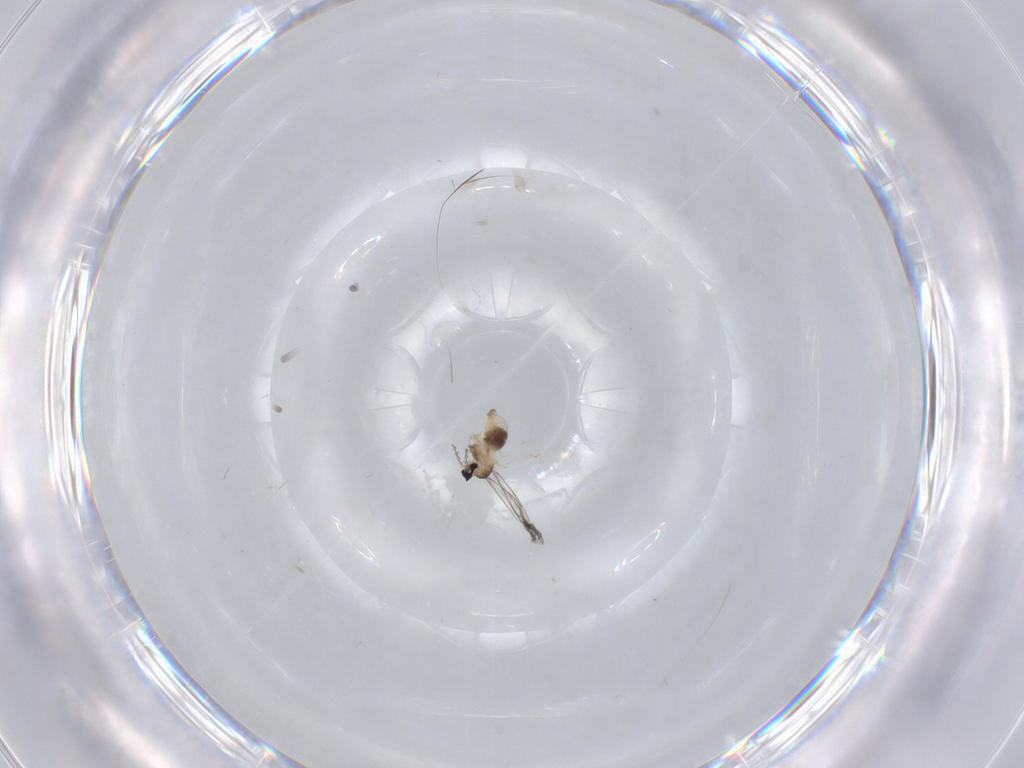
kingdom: Animalia
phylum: Arthropoda
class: Insecta
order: Diptera
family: Cecidomyiidae
